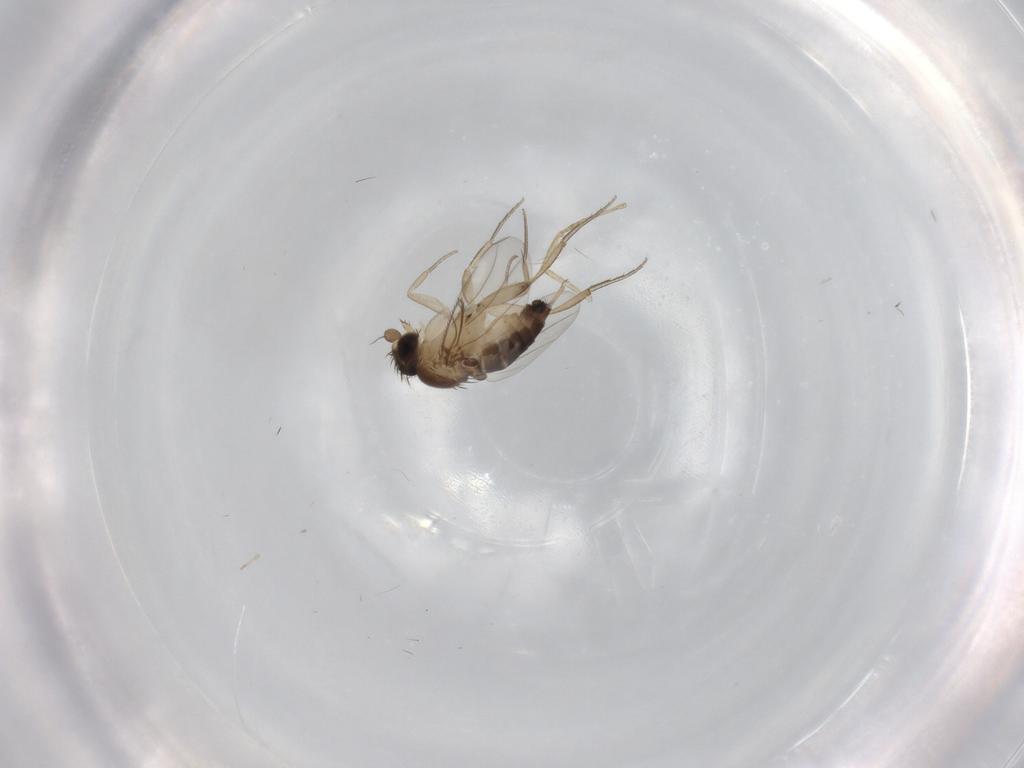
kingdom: Animalia
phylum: Arthropoda
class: Insecta
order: Diptera
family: Phoridae
